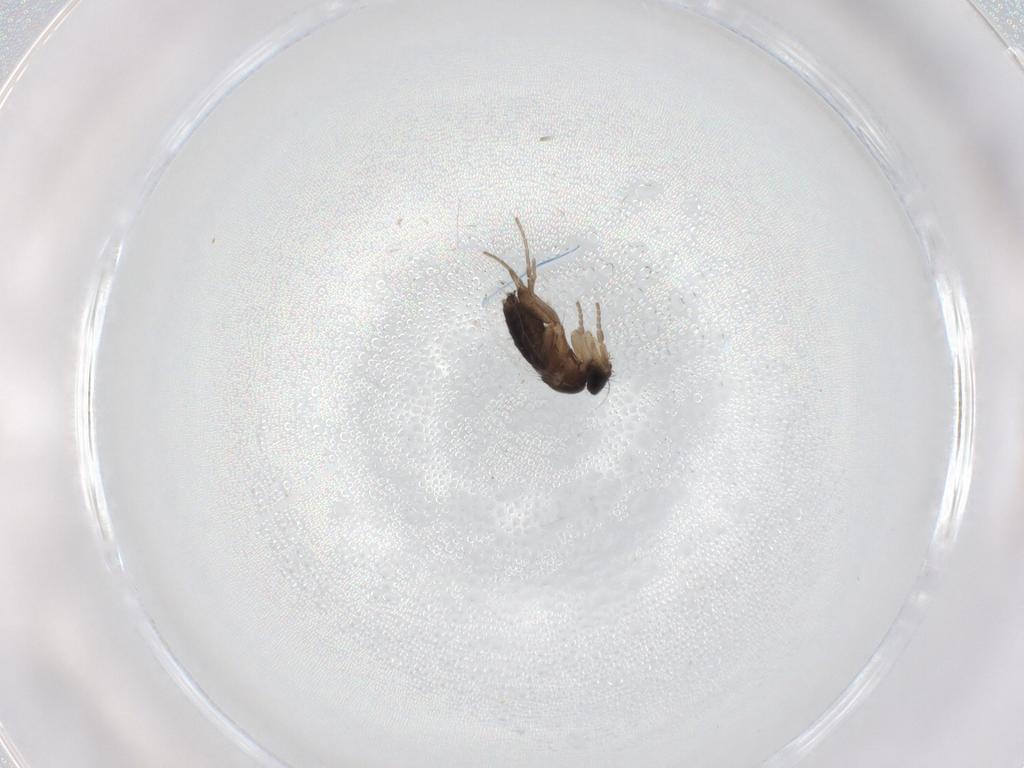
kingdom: Animalia
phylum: Arthropoda
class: Insecta
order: Diptera
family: Phoridae
